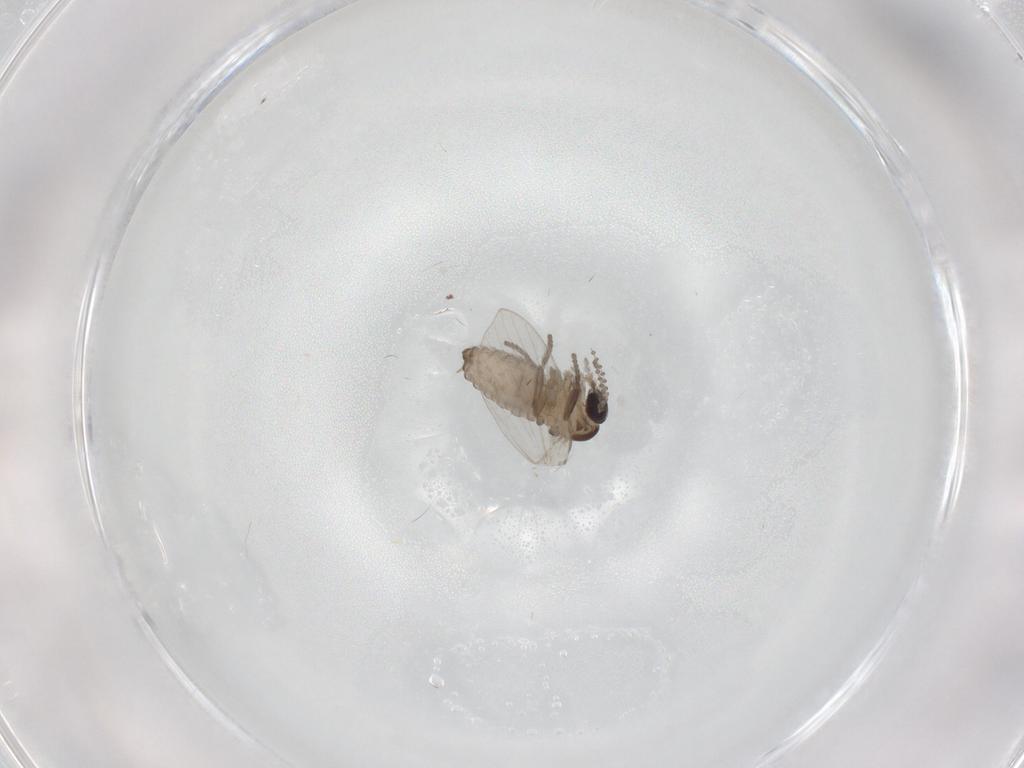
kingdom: Animalia
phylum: Arthropoda
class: Insecta
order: Diptera
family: Psychodidae
